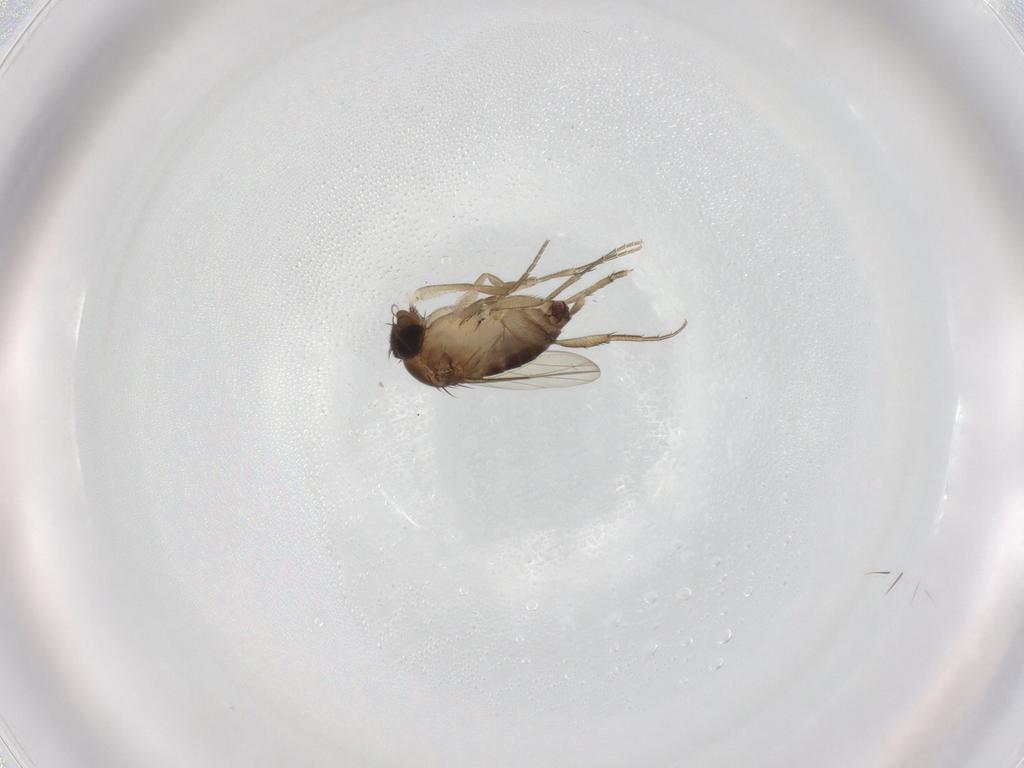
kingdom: Animalia
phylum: Arthropoda
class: Insecta
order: Diptera
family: Phoridae
